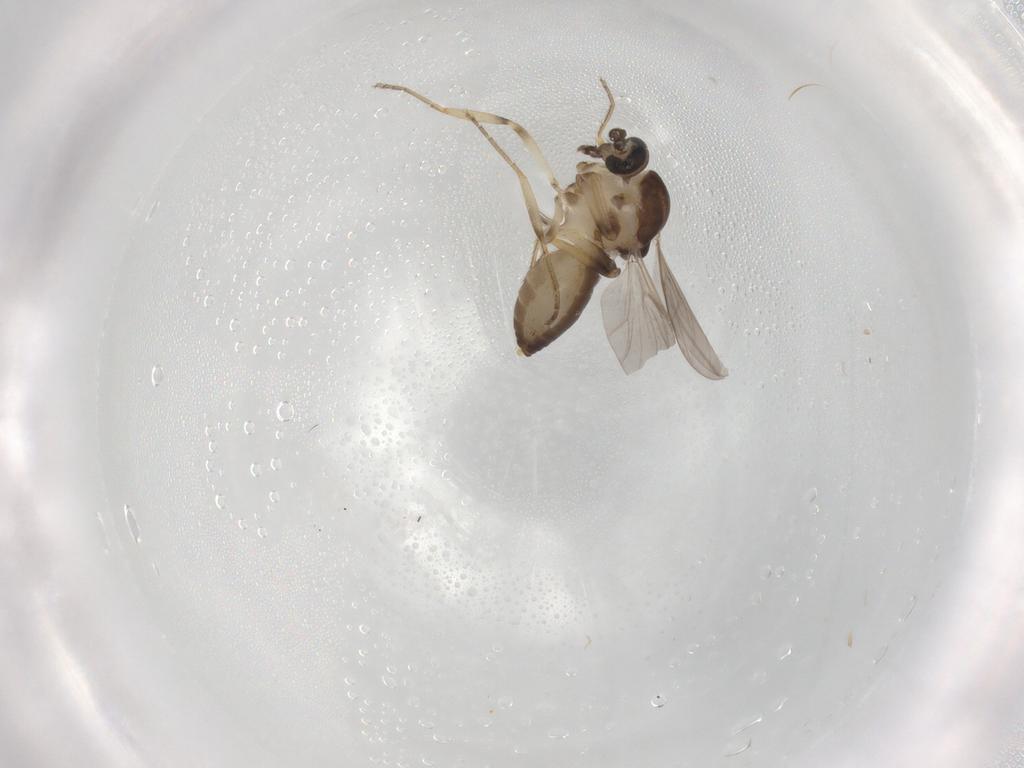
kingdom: Animalia
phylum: Arthropoda
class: Insecta
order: Diptera
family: Ceratopogonidae
